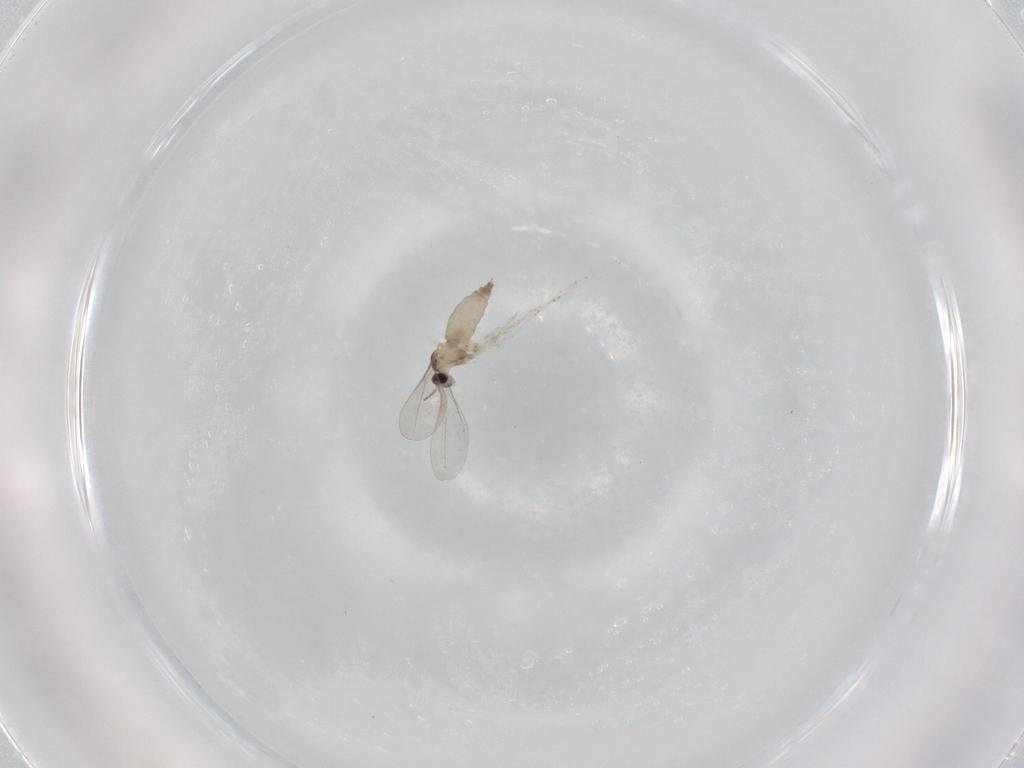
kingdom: Animalia
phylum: Arthropoda
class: Insecta
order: Diptera
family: Cecidomyiidae
